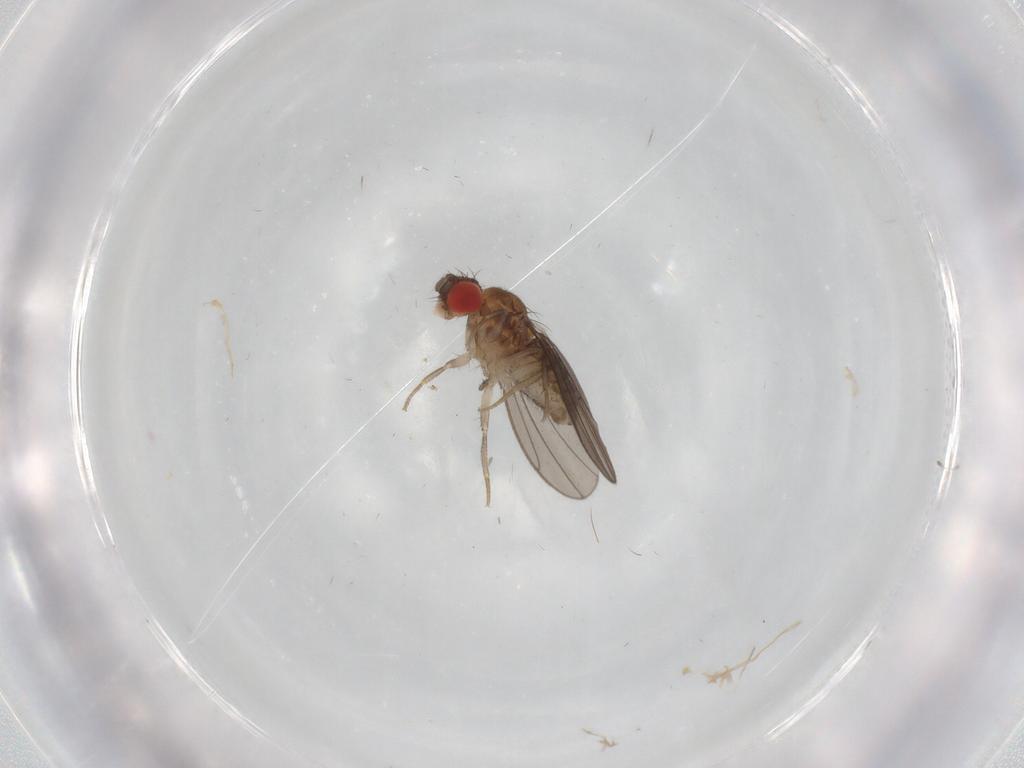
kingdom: Animalia
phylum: Arthropoda
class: Insecta
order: Diptera
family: Drosophilidae
